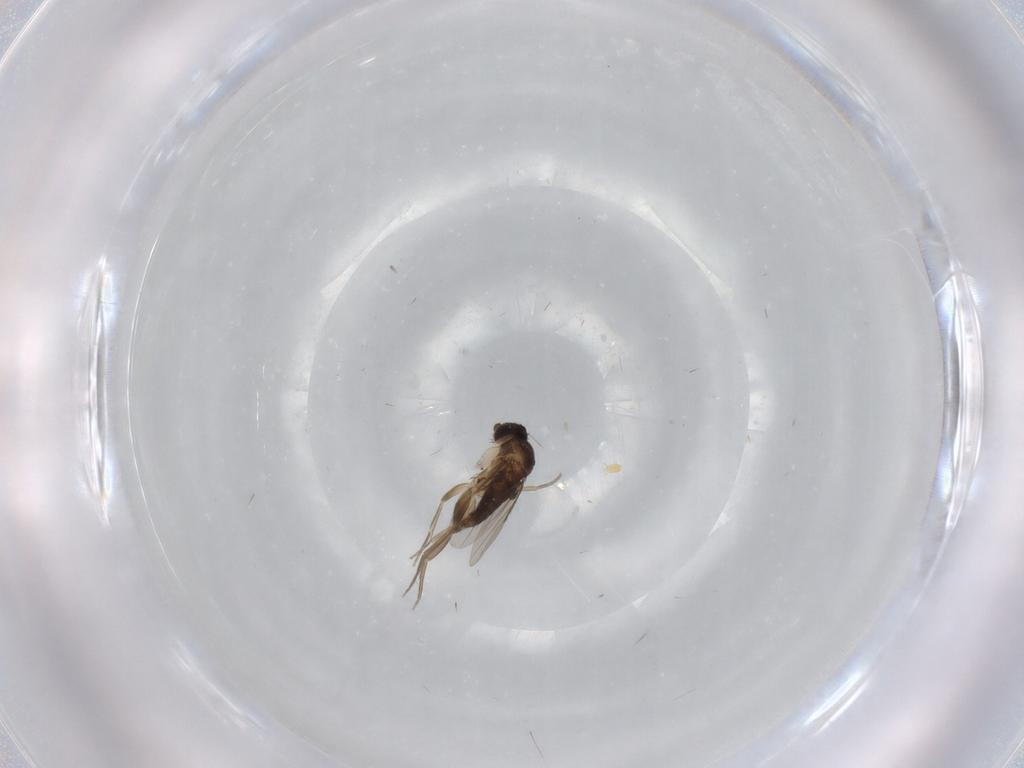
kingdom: Animalia
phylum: Arthropoda
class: Insecta
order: Diptera
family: Phoridae
